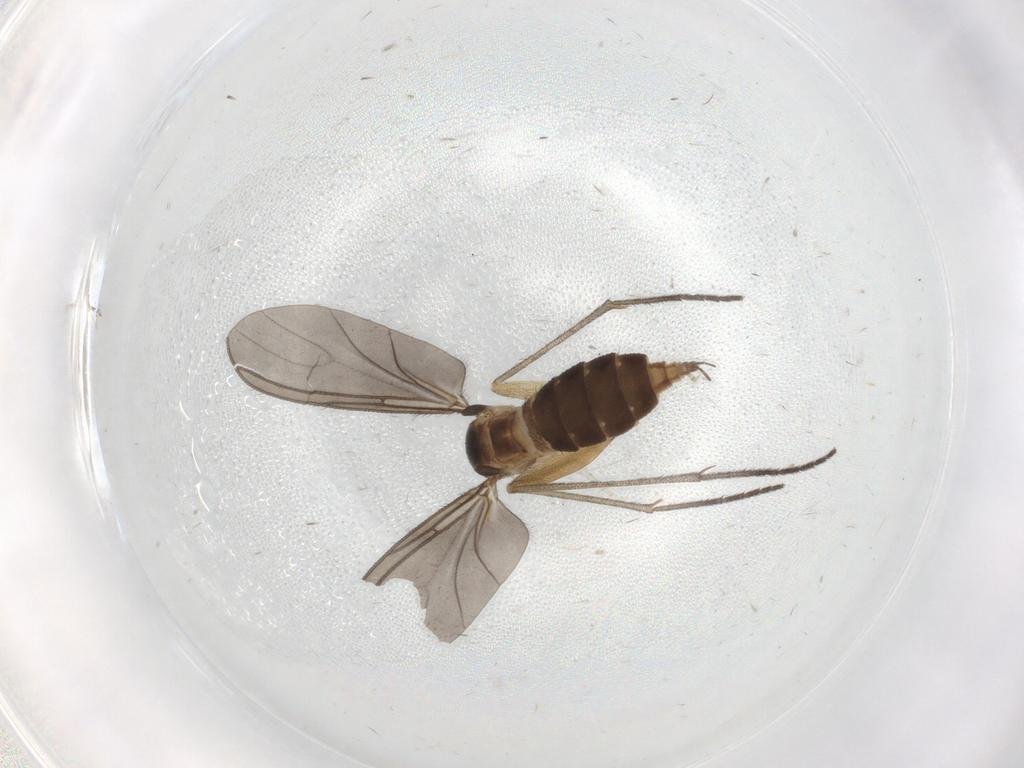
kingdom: Animalia
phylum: Arthropoda
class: Insecta
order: Diptera
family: Sciaridae
